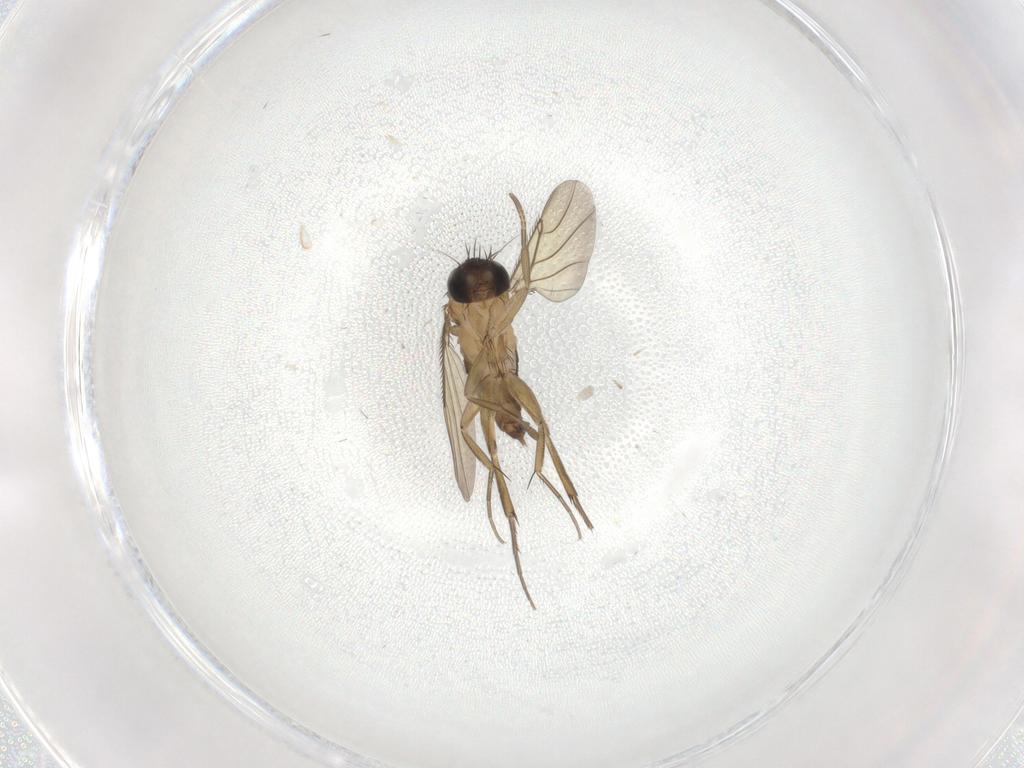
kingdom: Animalia
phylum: Arthropoda
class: Insecta
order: Diptera
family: Phoridae
